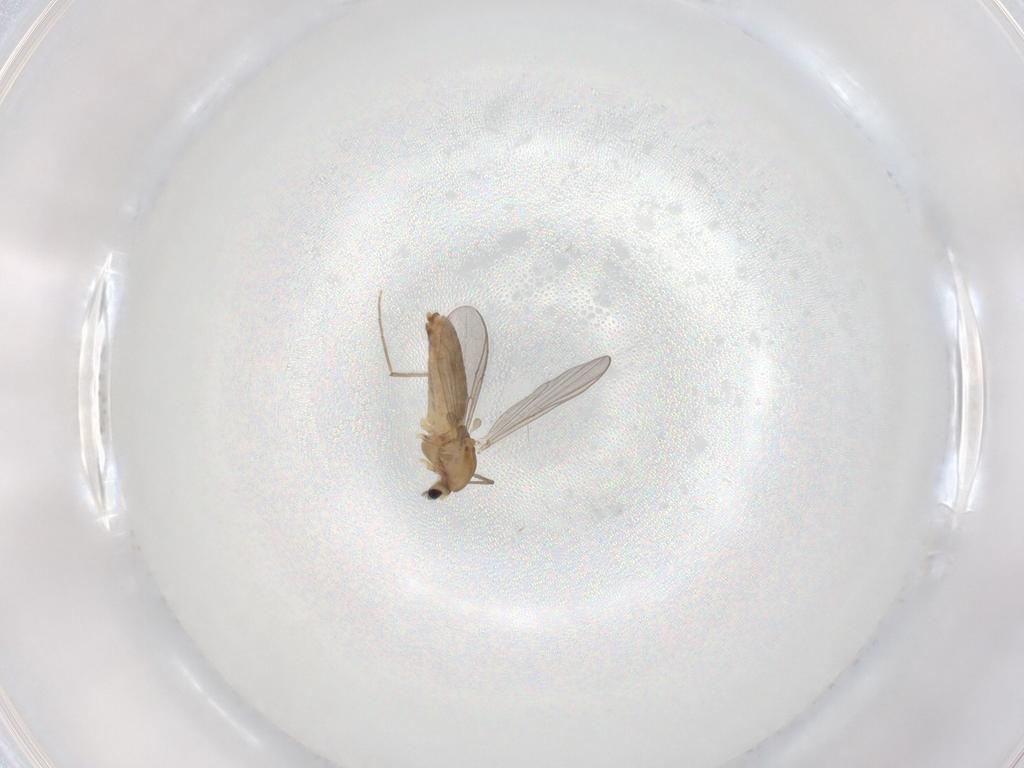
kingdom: Animalia
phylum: Arthropoda
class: Insecta
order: Diptera
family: Chironomidae
